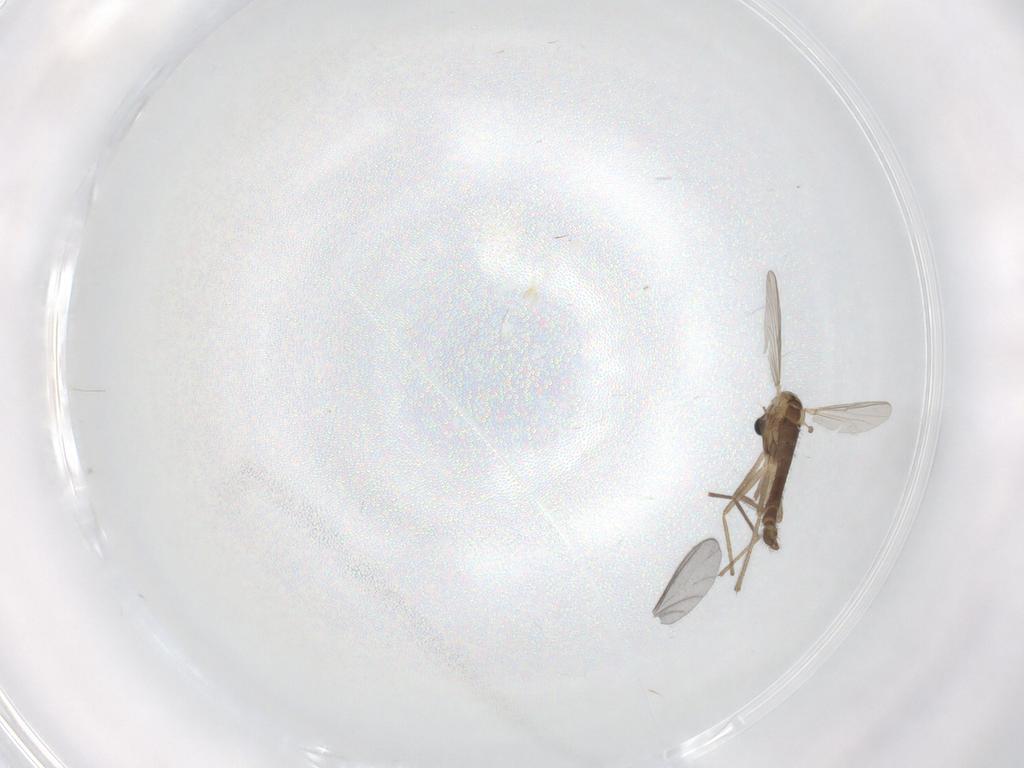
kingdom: Animalia
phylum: Arthropoda
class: Insecta
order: Diptera
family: Chironomidae
